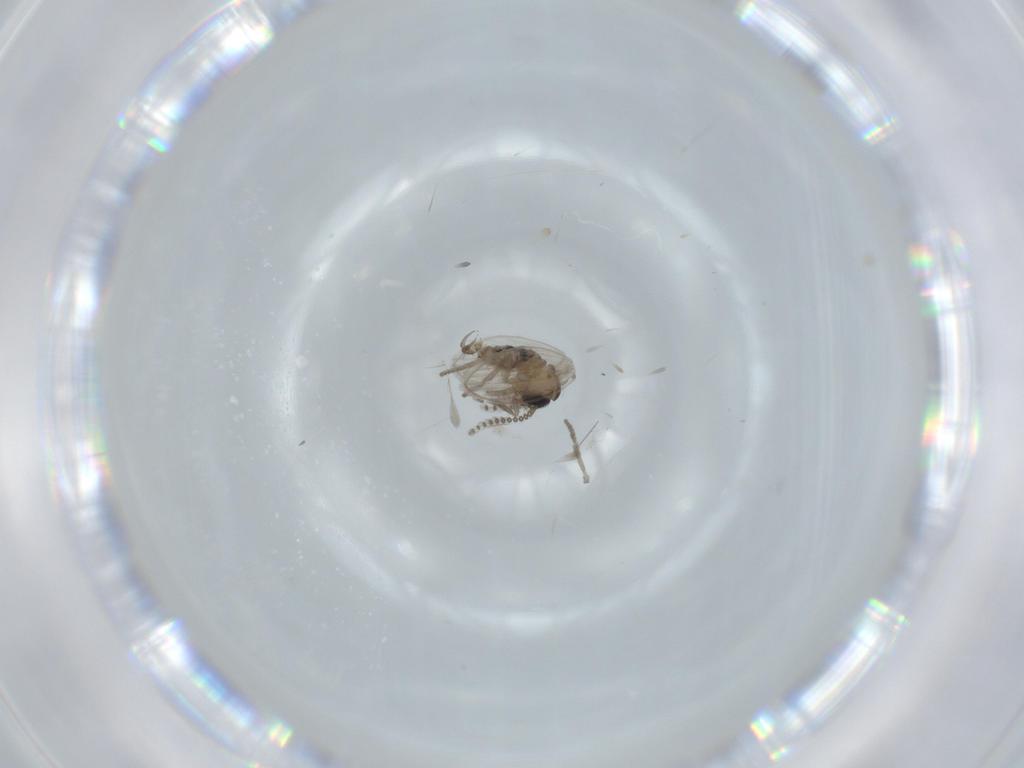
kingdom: Animalia
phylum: Arthropoda
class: Insecta
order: Diptera
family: Psychodidae
